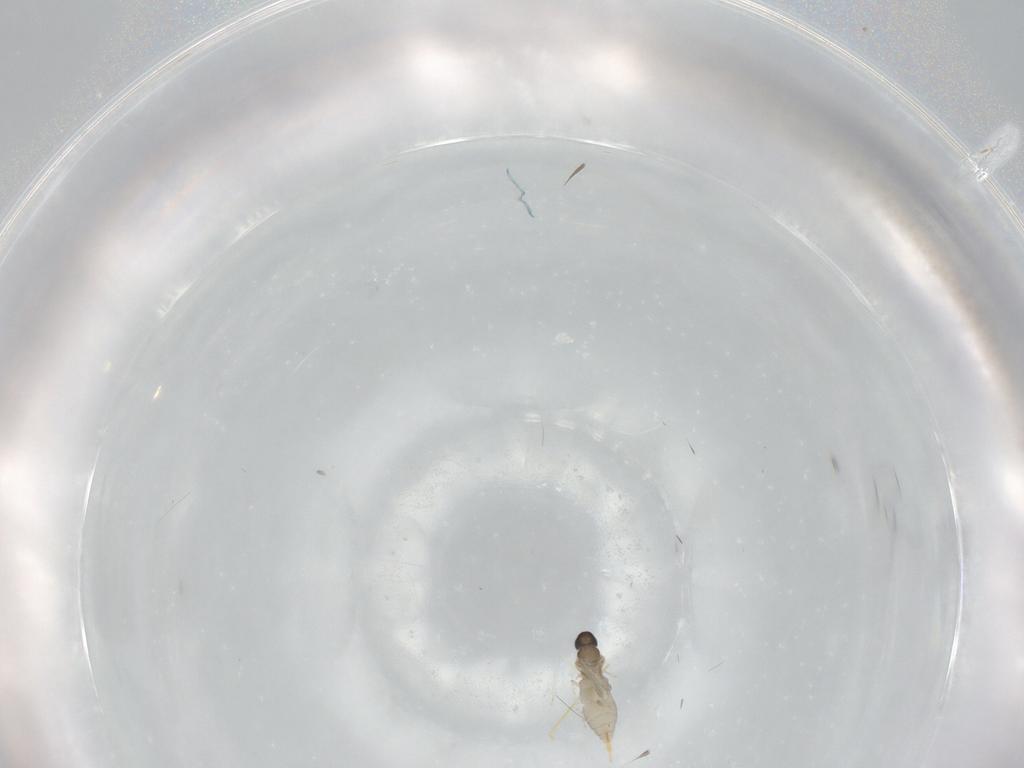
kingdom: Animalia
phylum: Arthropoda
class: Insecta
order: Diptera
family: Cecidomyiidae
